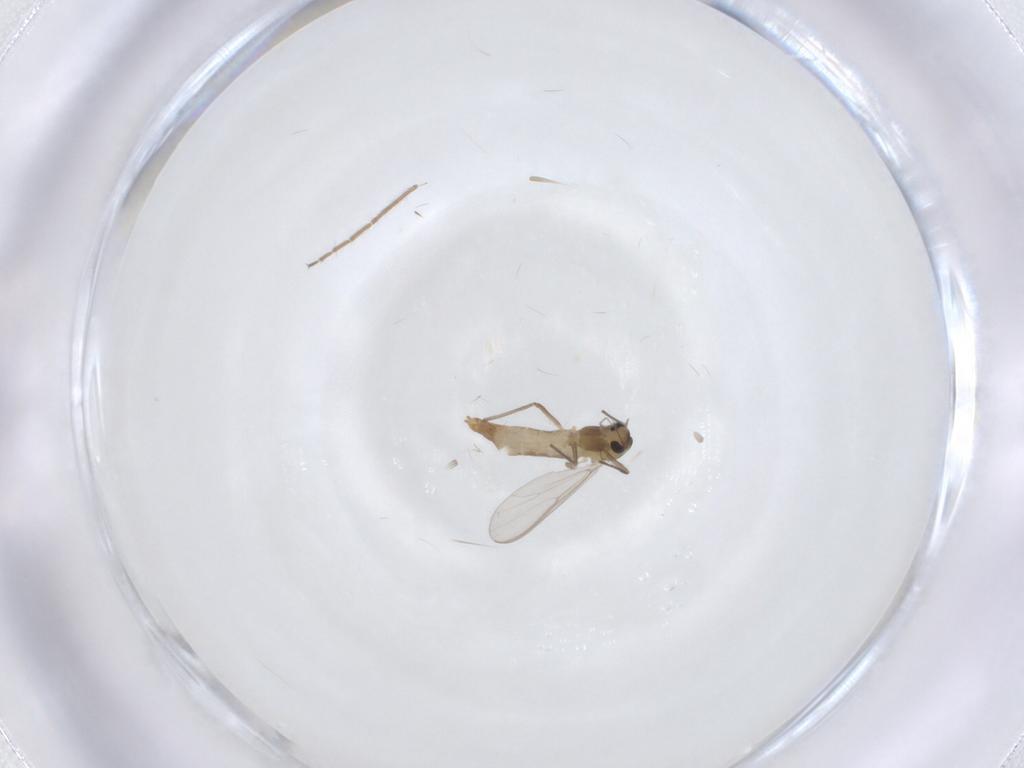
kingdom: Animalia
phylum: Arthropoda
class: Insecta
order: Diptera
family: Chironomidae
